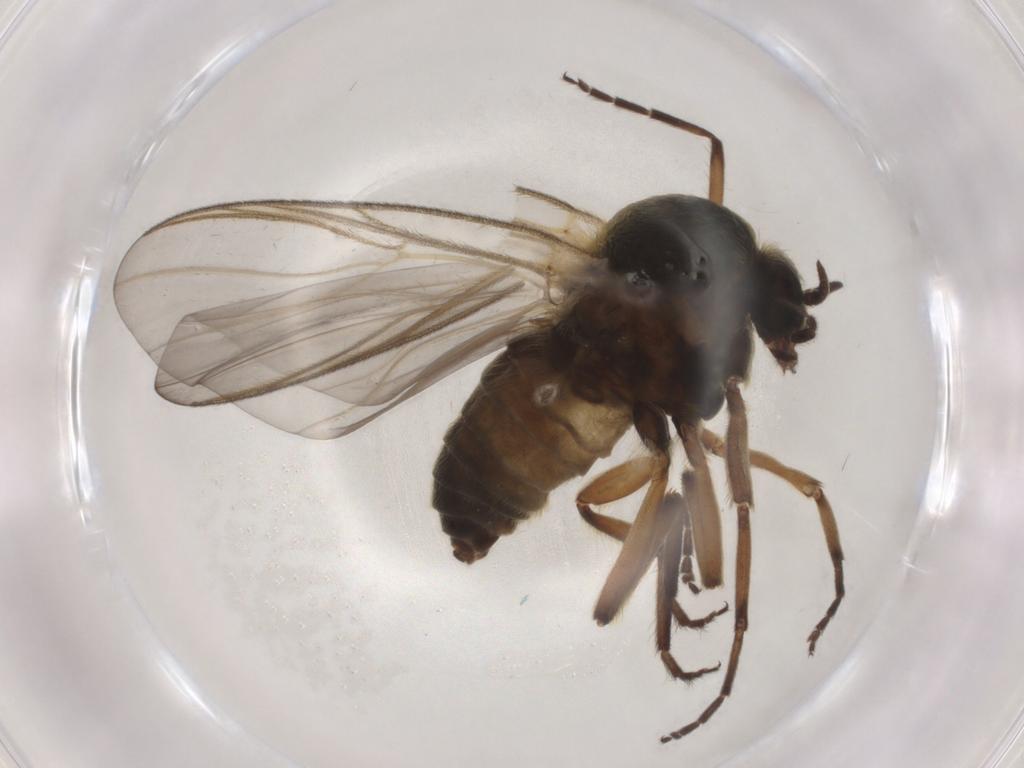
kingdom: Animalia
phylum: Arthropoda
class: Insecta
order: Diptera
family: Simuliidae
